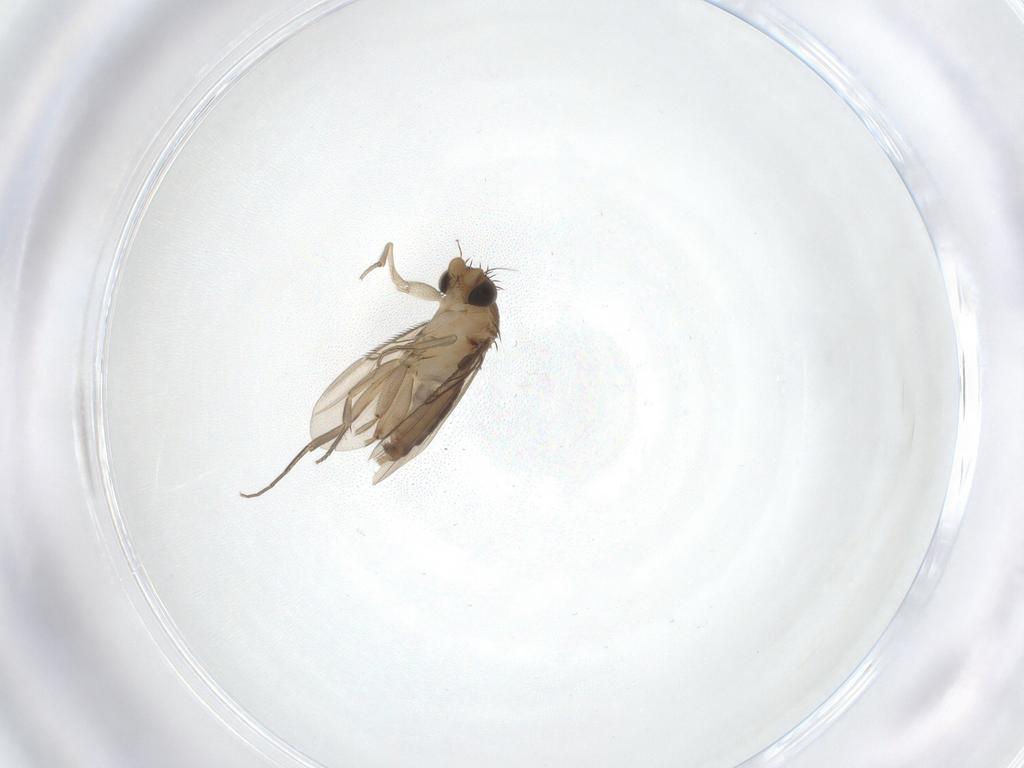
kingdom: Animalia
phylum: Arthropoda
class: Insecta
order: Diptera
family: Phoridae
